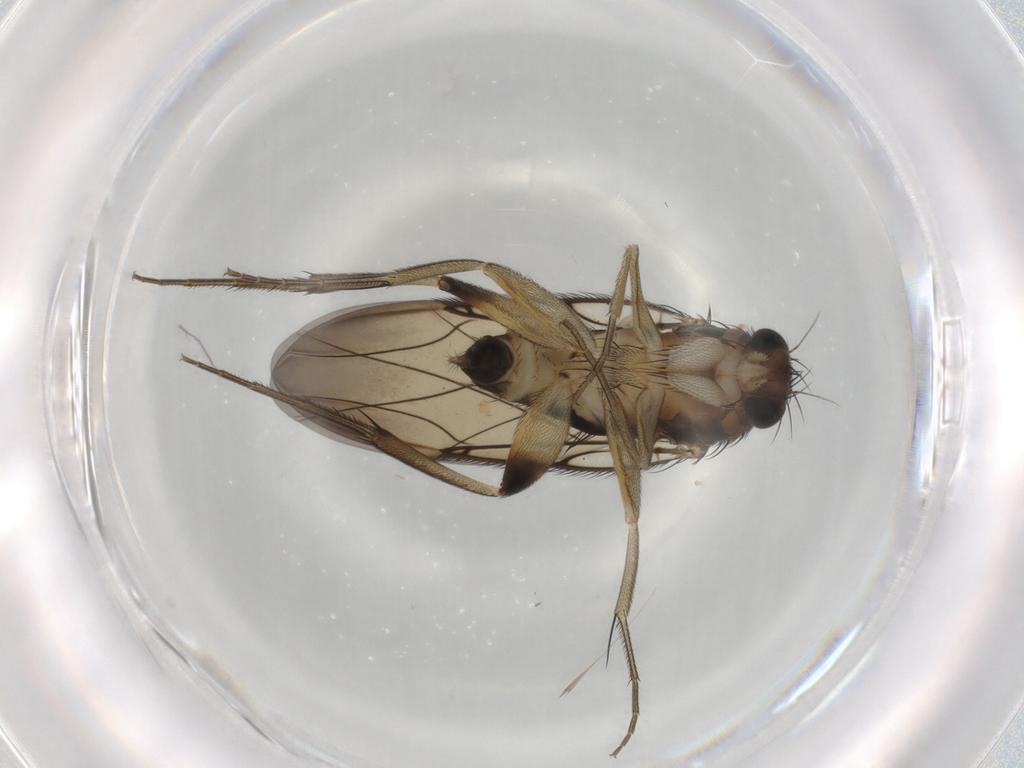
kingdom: Animalia
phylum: Arthropoda
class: Insecta
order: Diptera
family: Phoridae
